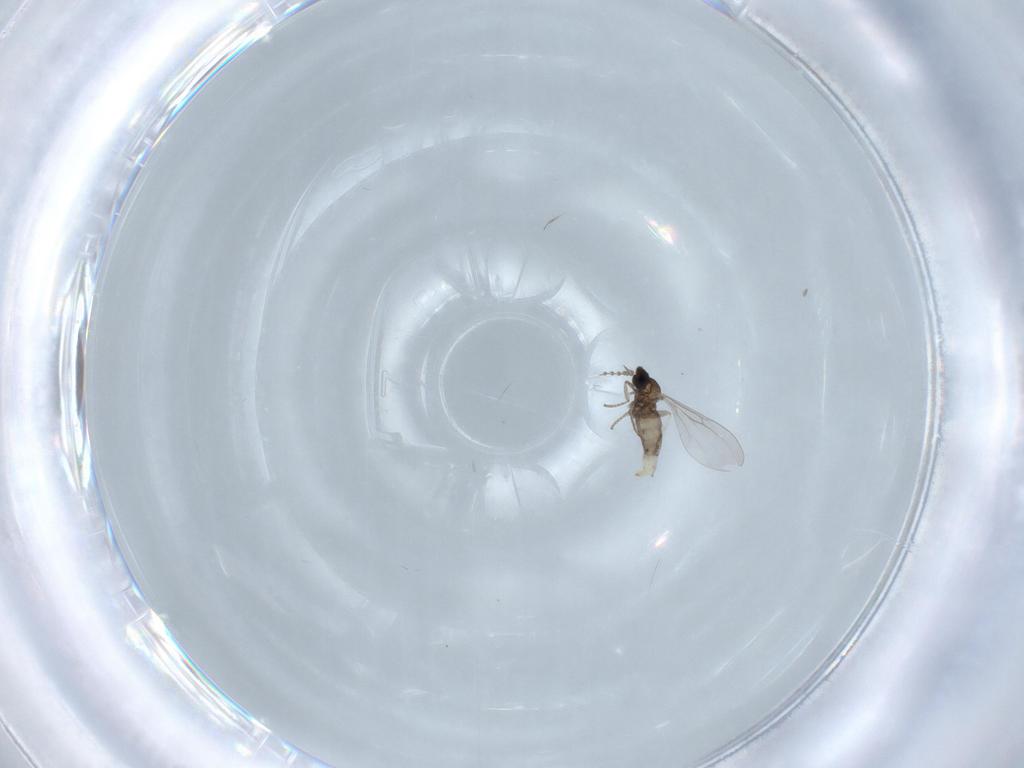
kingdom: Animalia
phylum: Arthropoda
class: Insecta
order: Diptera
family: Cecidomyiidae
